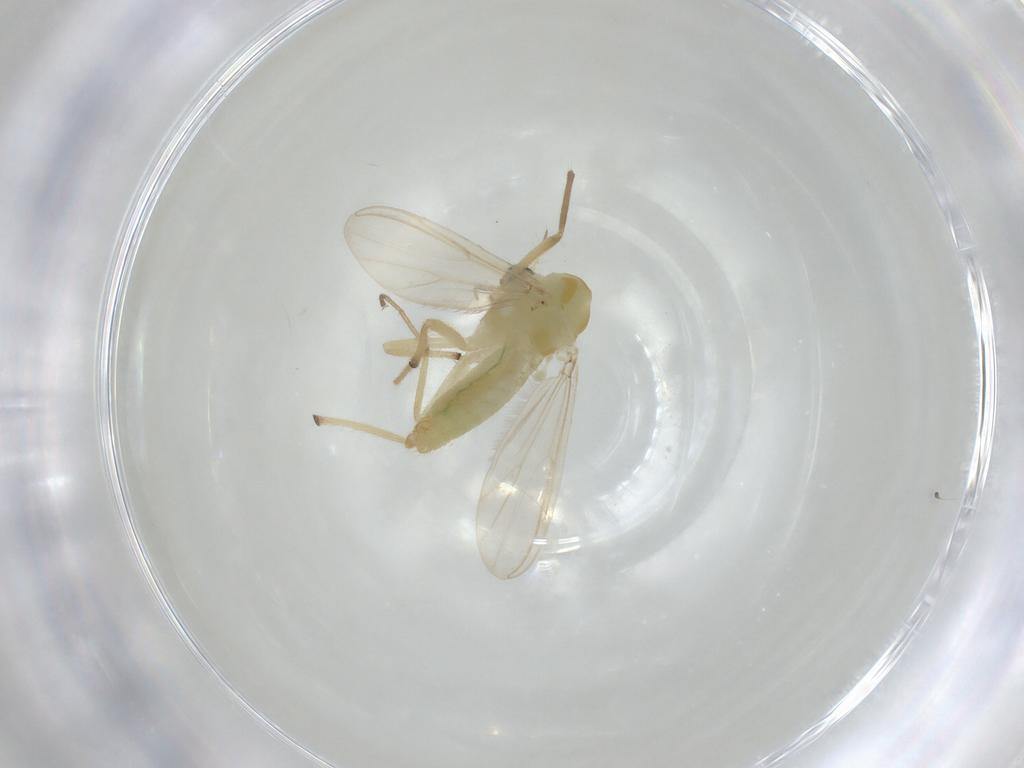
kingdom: Animalia
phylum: Arthropoda
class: Insecta
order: Diptera
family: Chironomidae
